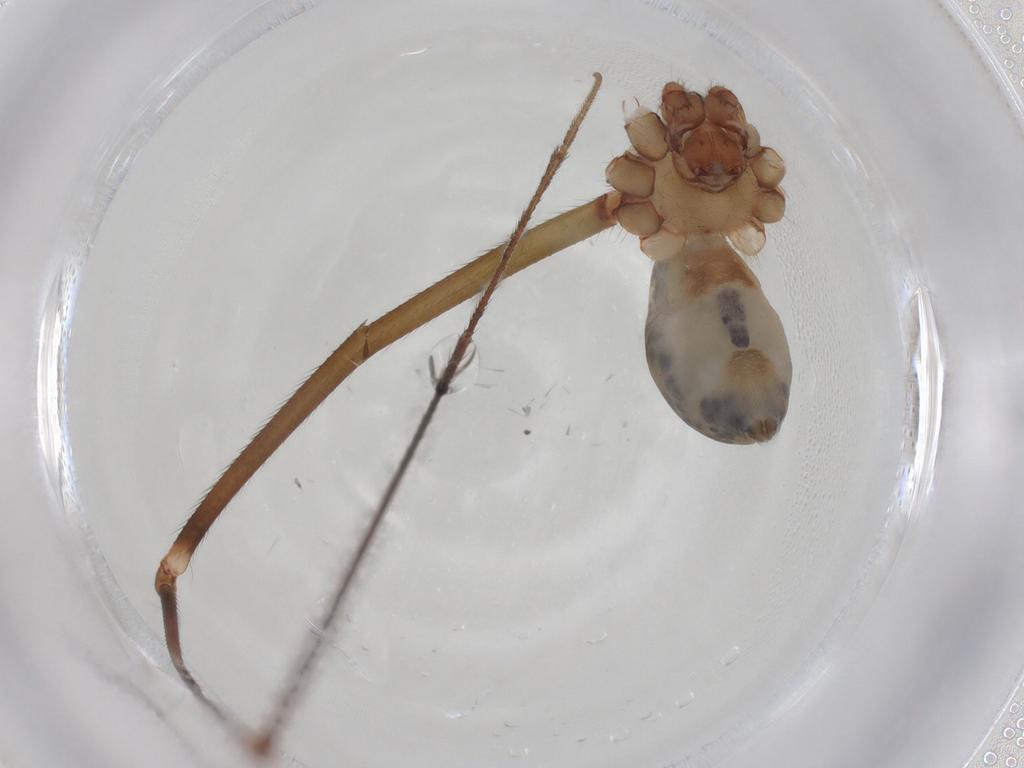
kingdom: Animalia
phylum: Arthropoda
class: Arachnida
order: Araneae
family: Pholcidae
